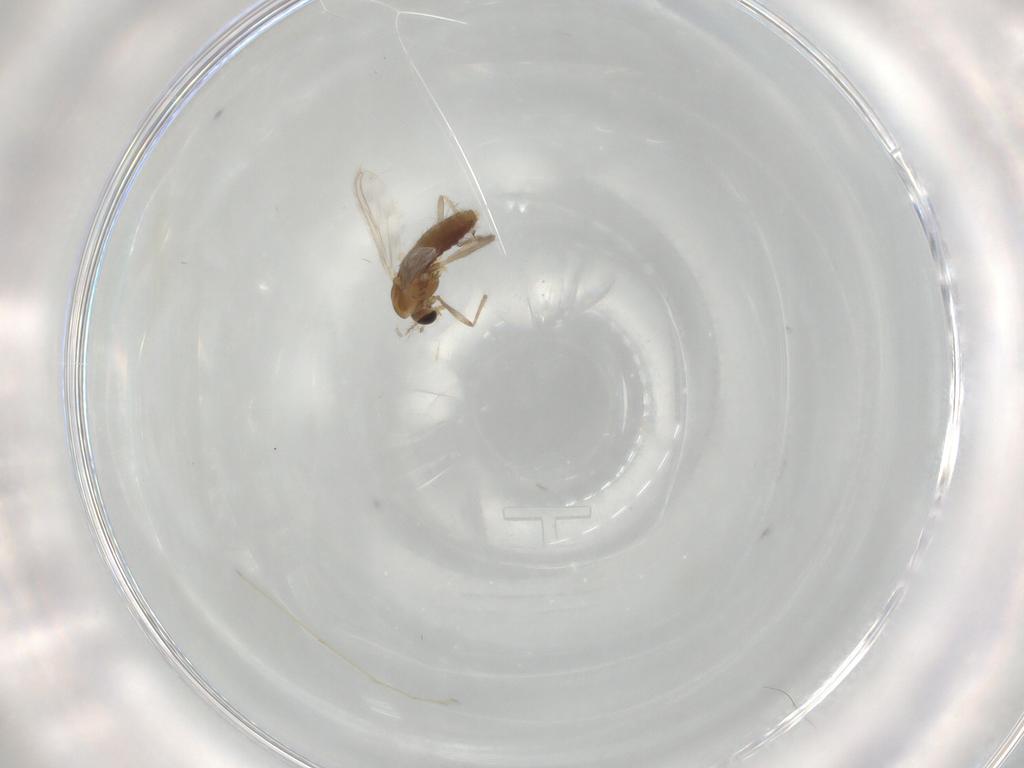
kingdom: Animalia
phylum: Arthropoda
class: Insecta
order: Diptera
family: Chironomidae
